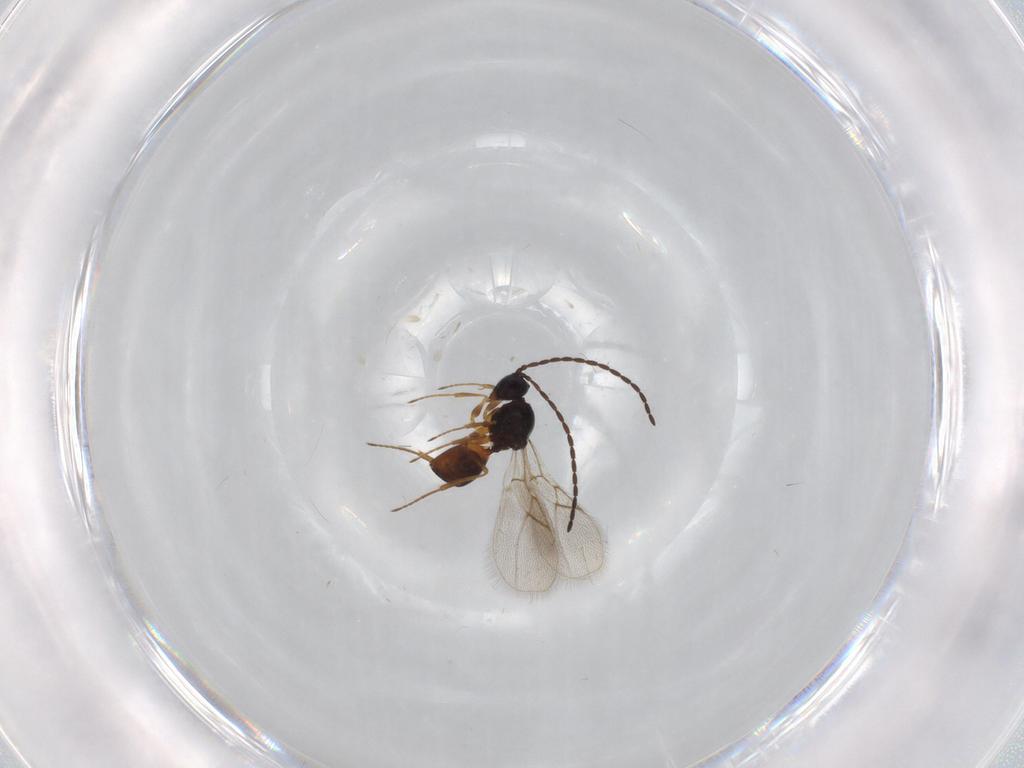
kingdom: Animalia
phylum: Arthropoda
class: Insecta
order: Hymenoptera
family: Figitidae
